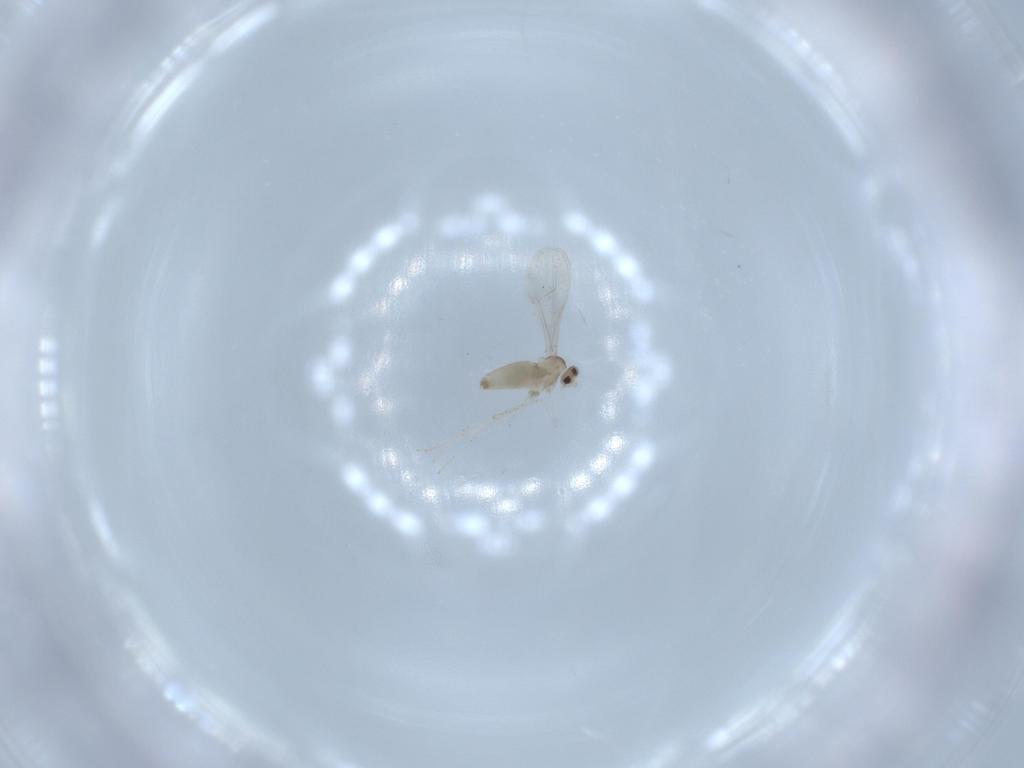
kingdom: Animalia
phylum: Arthropoda
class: Insecta
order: Diptera
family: Cecidomyiidae
